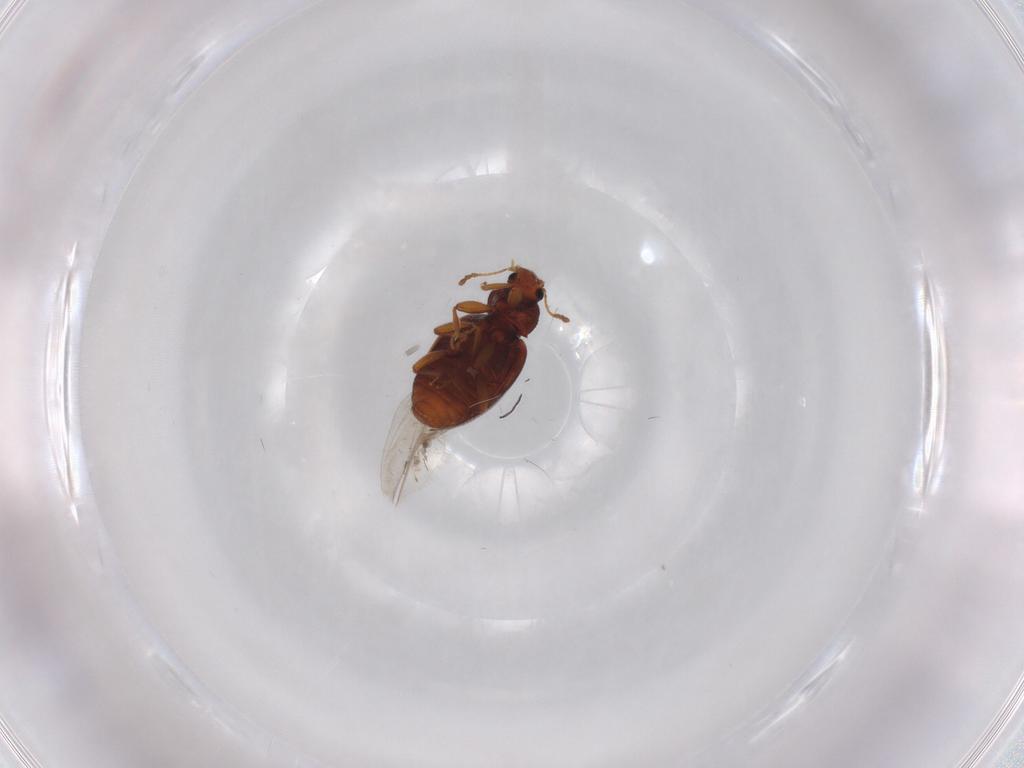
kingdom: Animalia
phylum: Arthropoda
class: Insecta
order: Coleoptera
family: Latridiidae
